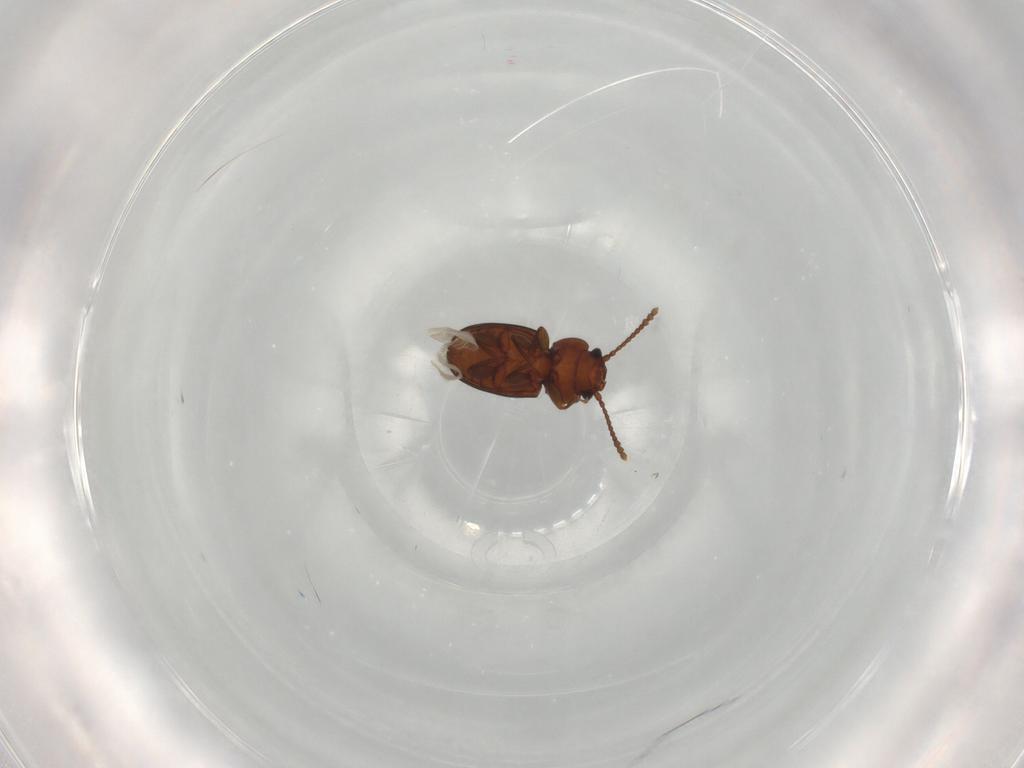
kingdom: Animalia
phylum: Arthropoda
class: Insecta
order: Coleoptera
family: Laemophloeidae
